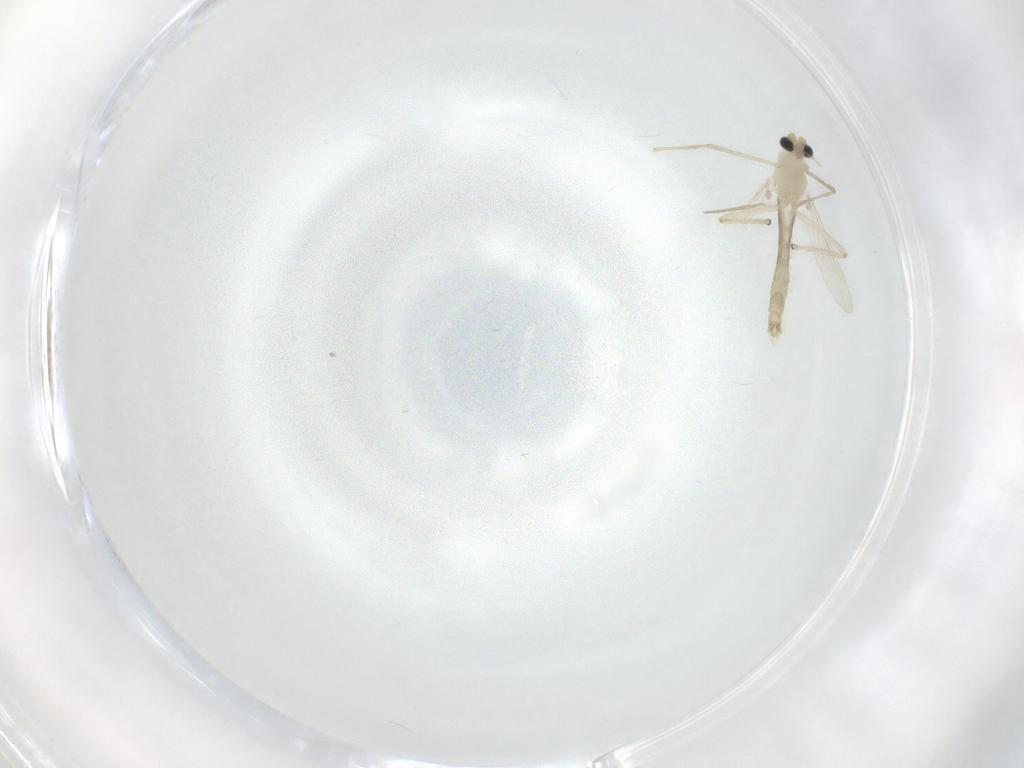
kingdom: Animalia
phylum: Arthropoda
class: Insecta
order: Diptera
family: Chironomidae
